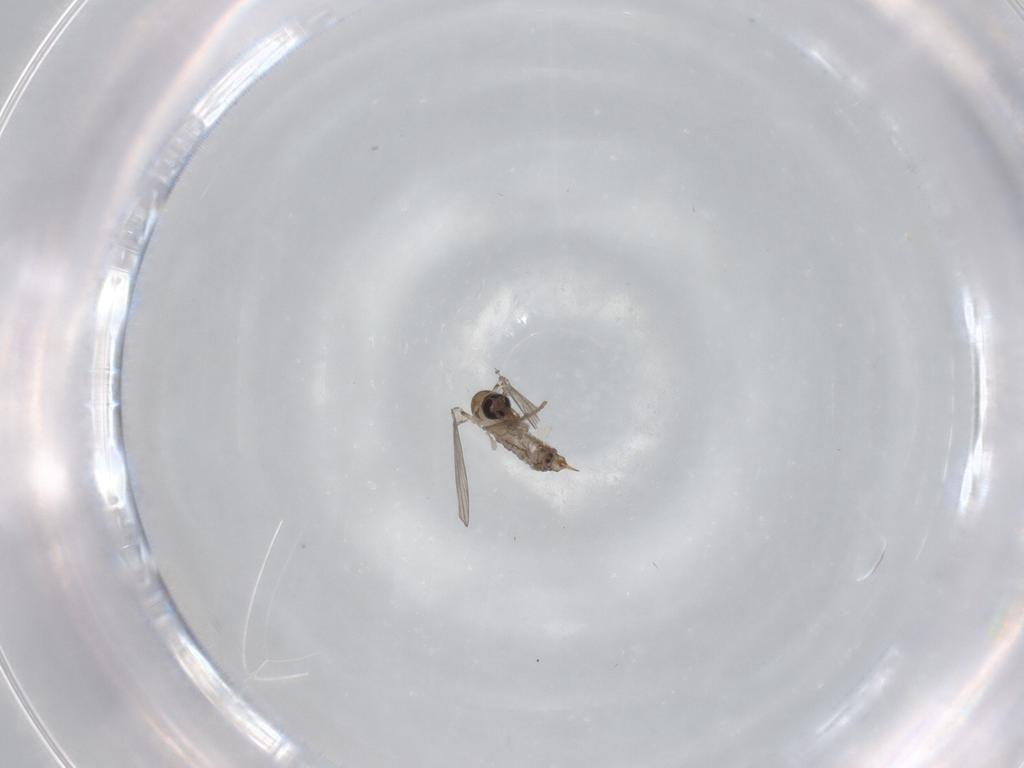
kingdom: Animalia
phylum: Arthropoda
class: Insecta
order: Diptera
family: Psychodidae
